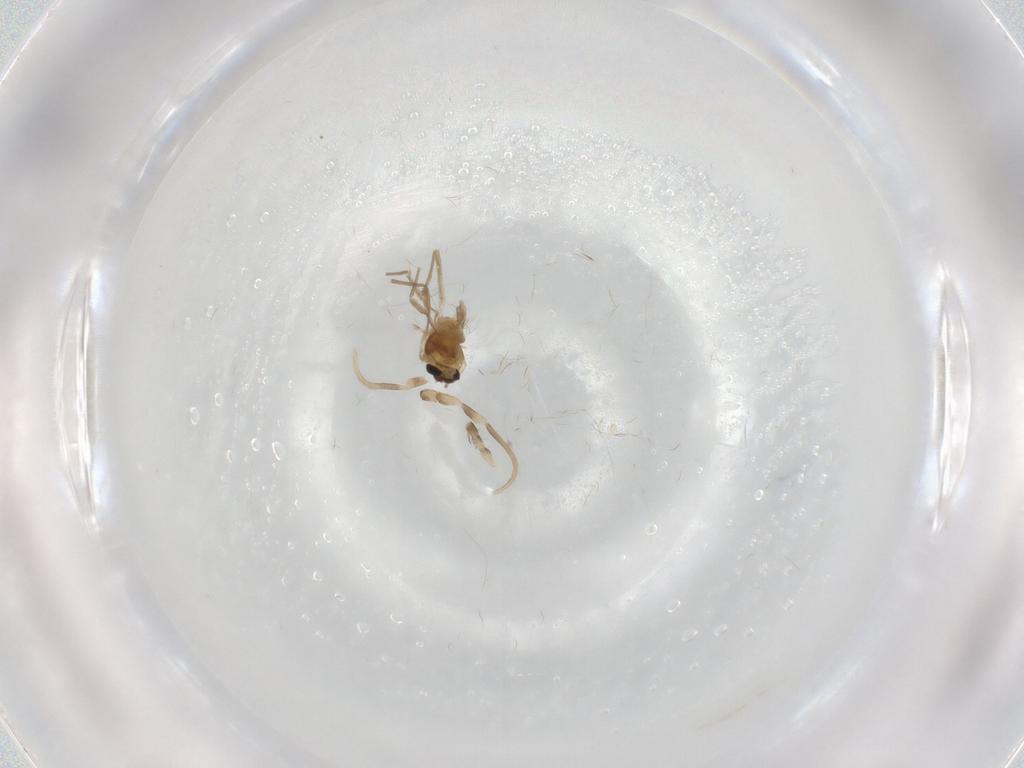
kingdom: Animalia
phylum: Arthropoda
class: Insecta
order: Diptera
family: Chironomidae
